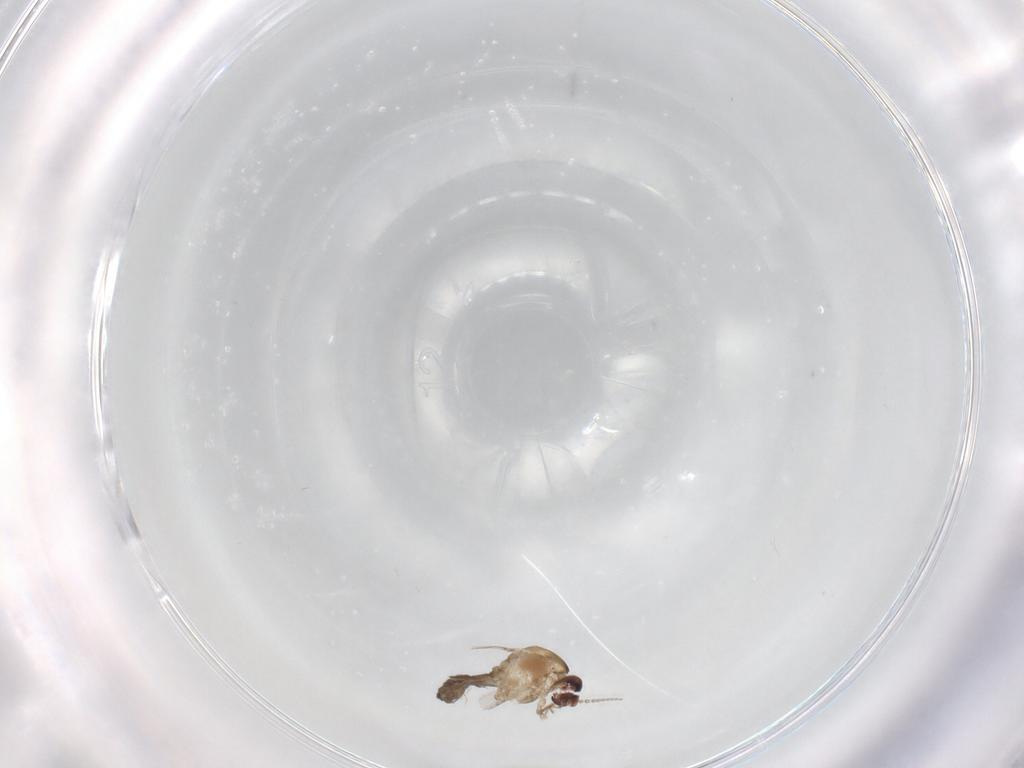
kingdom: Animalia
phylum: Arthropoda
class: Insecta
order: Diptera
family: Ceratopogonidae
